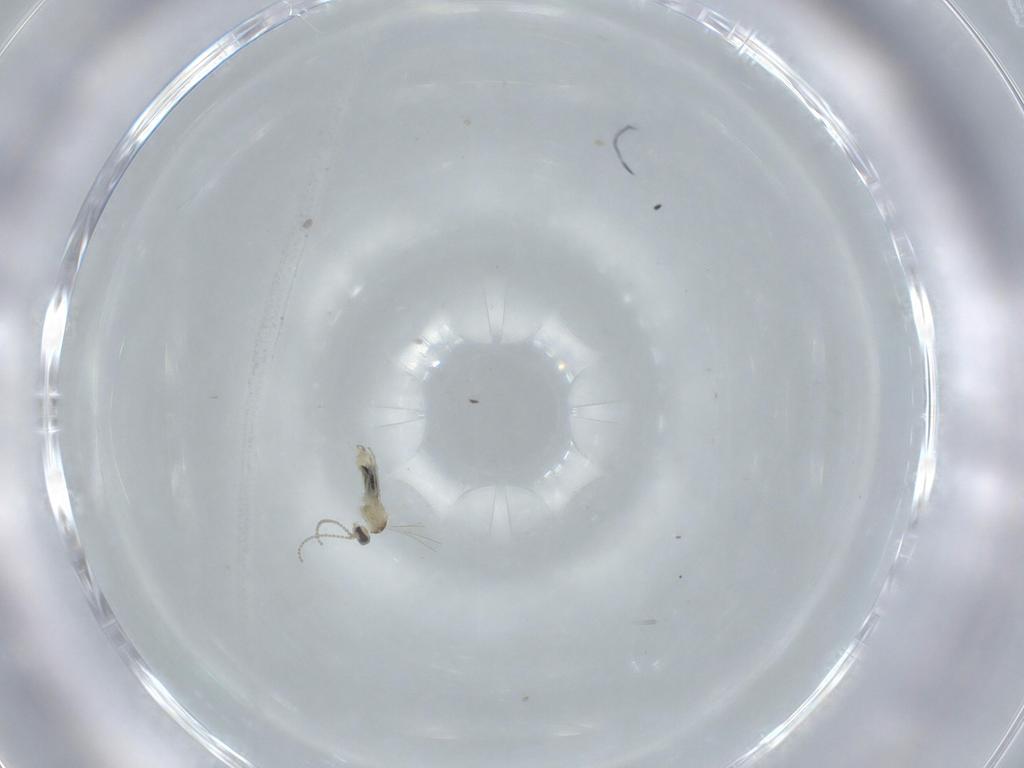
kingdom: Animalia
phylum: Arthropoda
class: Insecta
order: Diptera
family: Cecidomyiidae
